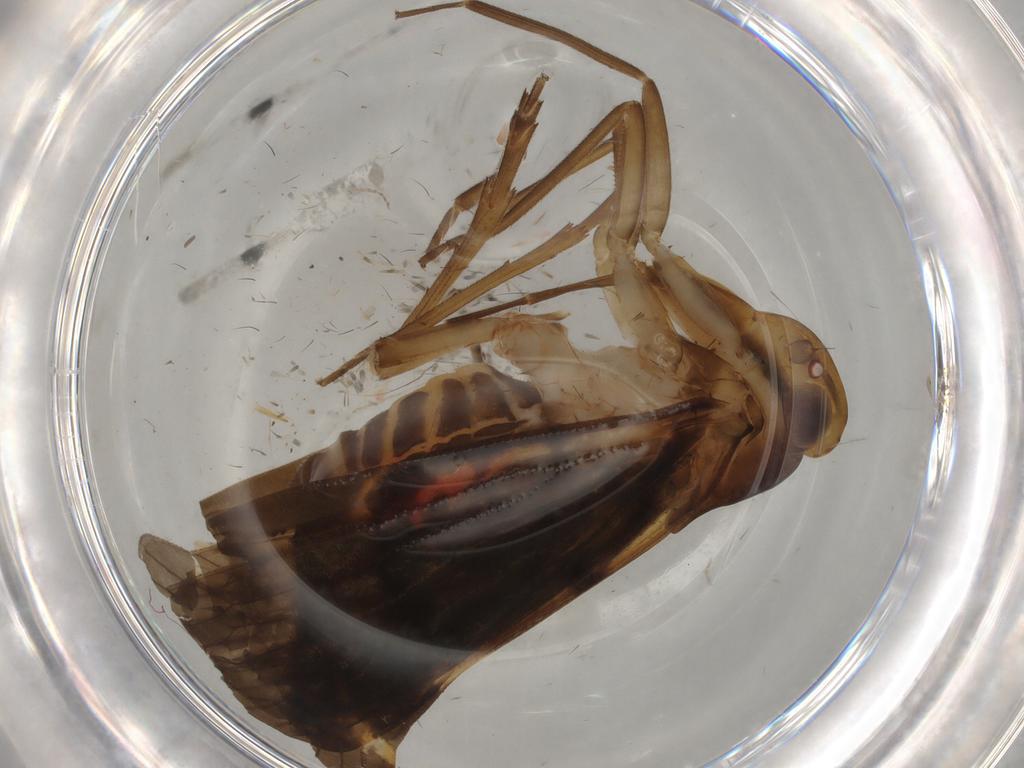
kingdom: Animalia
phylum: Arthropoda
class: Insecta
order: Hemiptera
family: Cixiidae
